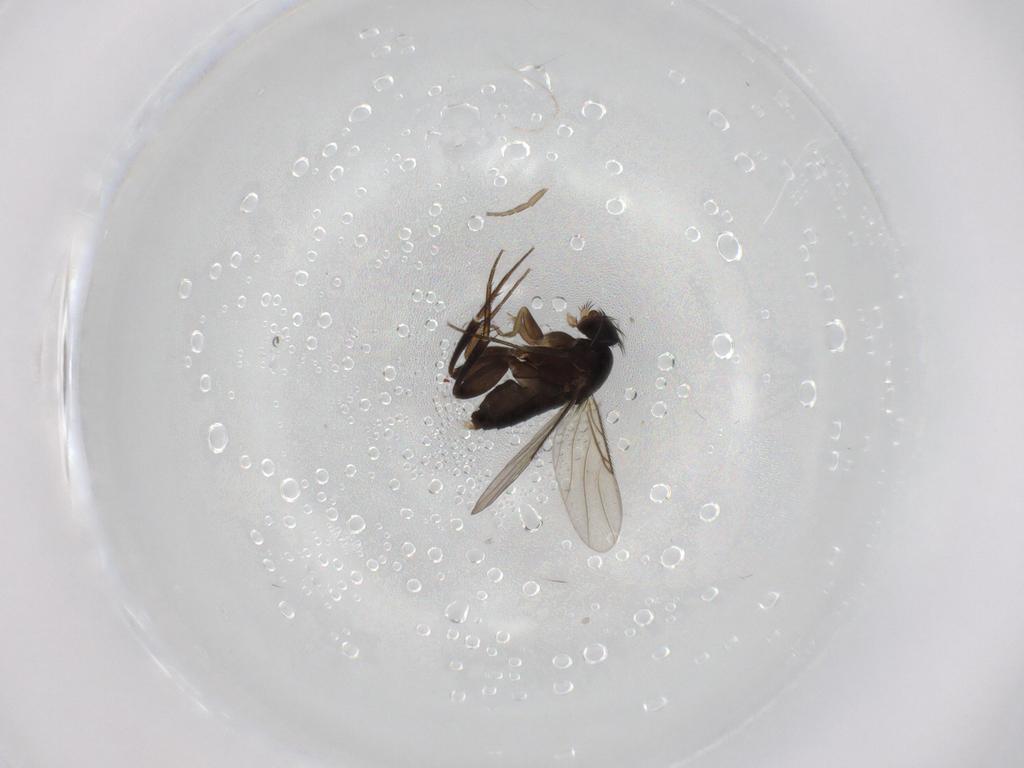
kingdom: Animalia
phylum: Arthropoda
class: Insecta
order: Diptera
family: Phoridae
